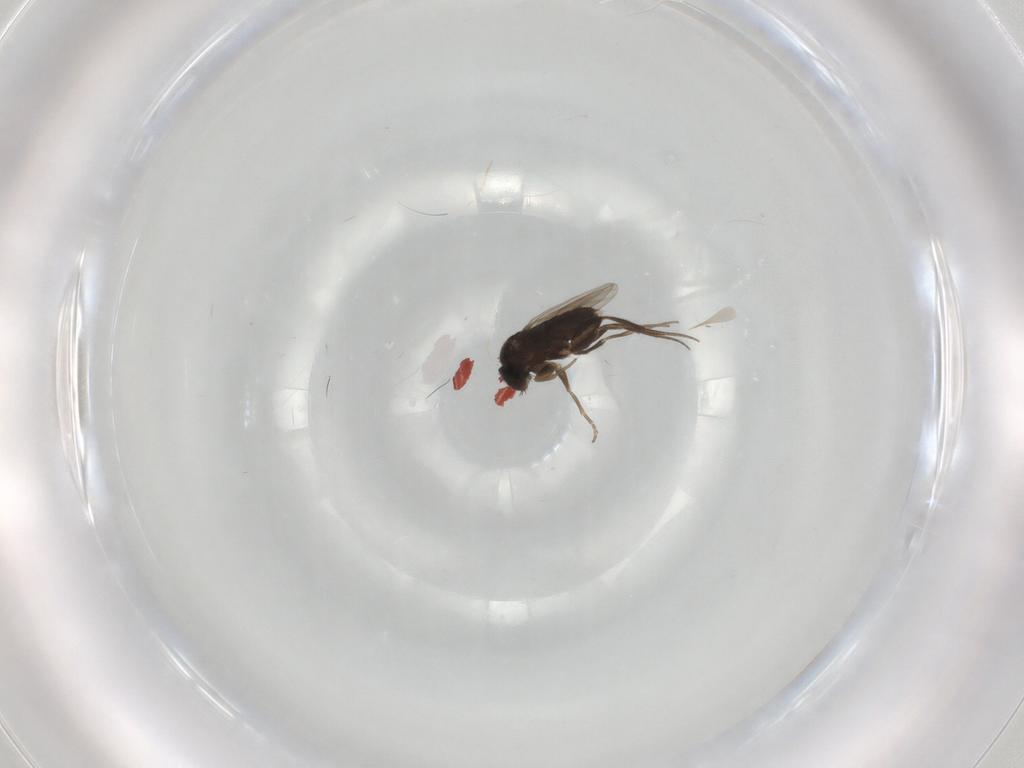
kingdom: Animalia
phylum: Arthropoda
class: Insecta
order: Diptera
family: Phoridae
